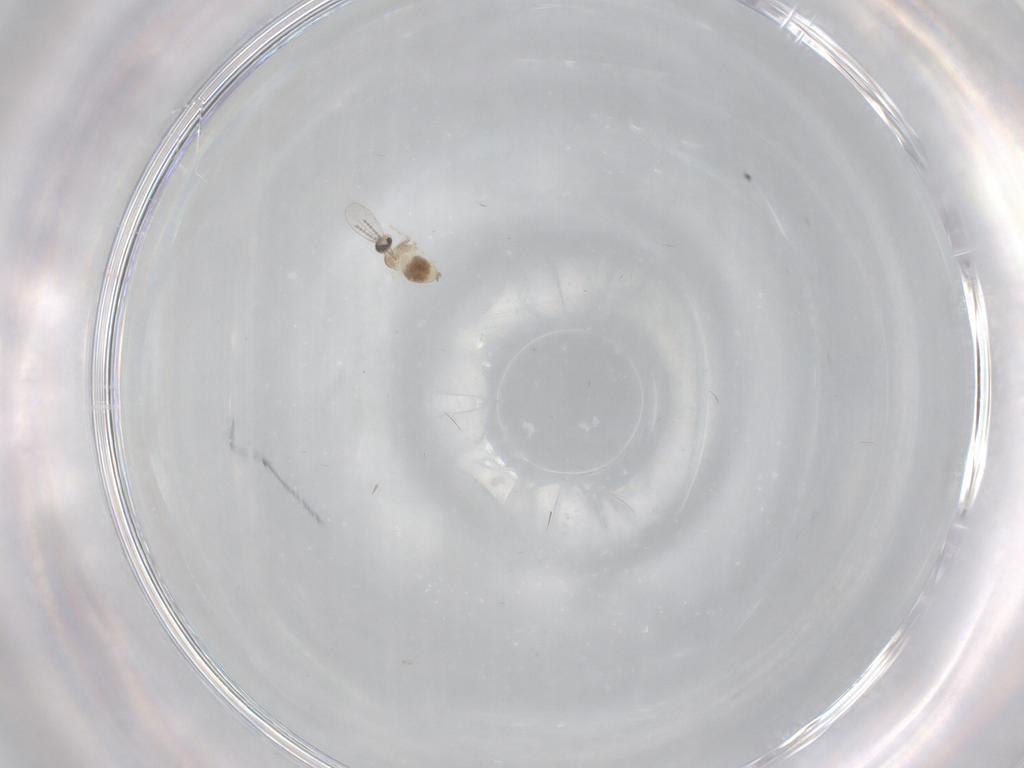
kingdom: Animalia
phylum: Arthropoda
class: Insecta
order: Diptera
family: Cecidomyiidae
